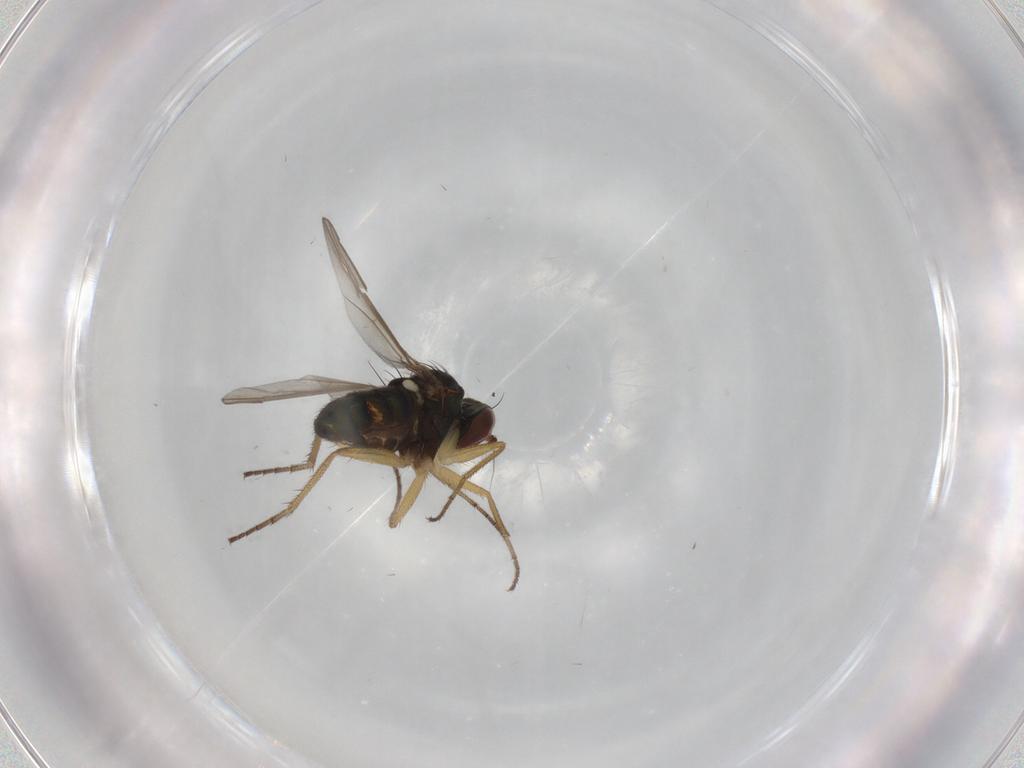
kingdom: Animalia
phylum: Arthropoda
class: Insecta
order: Diptera
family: Dolichopodidae
